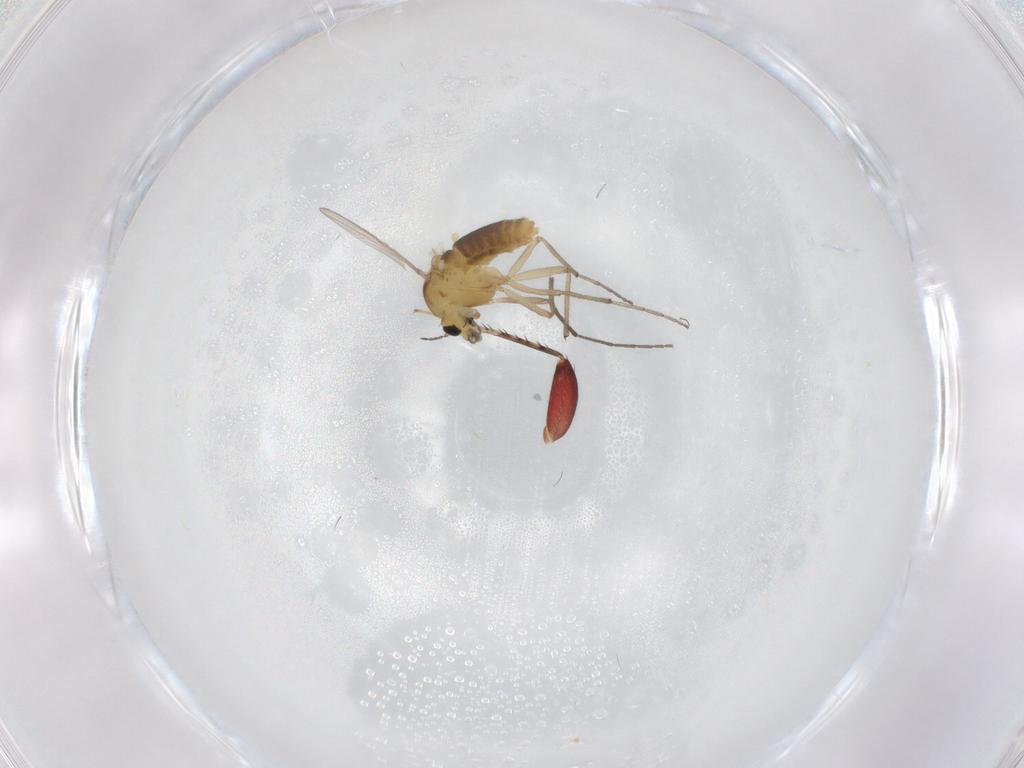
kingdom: Animalia
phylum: Arthropoda
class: Insecta
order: Diptera
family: Chironomidae
